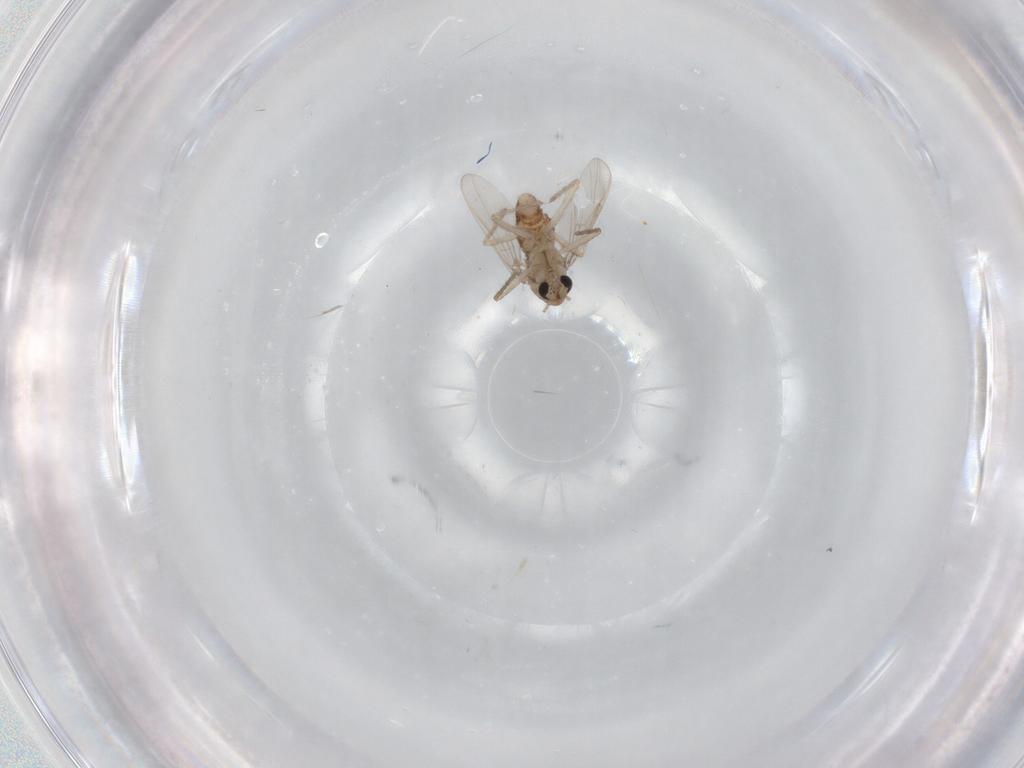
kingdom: Animalia
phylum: Arthropoda
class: Insecta
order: Diptera
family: Chironomidae
